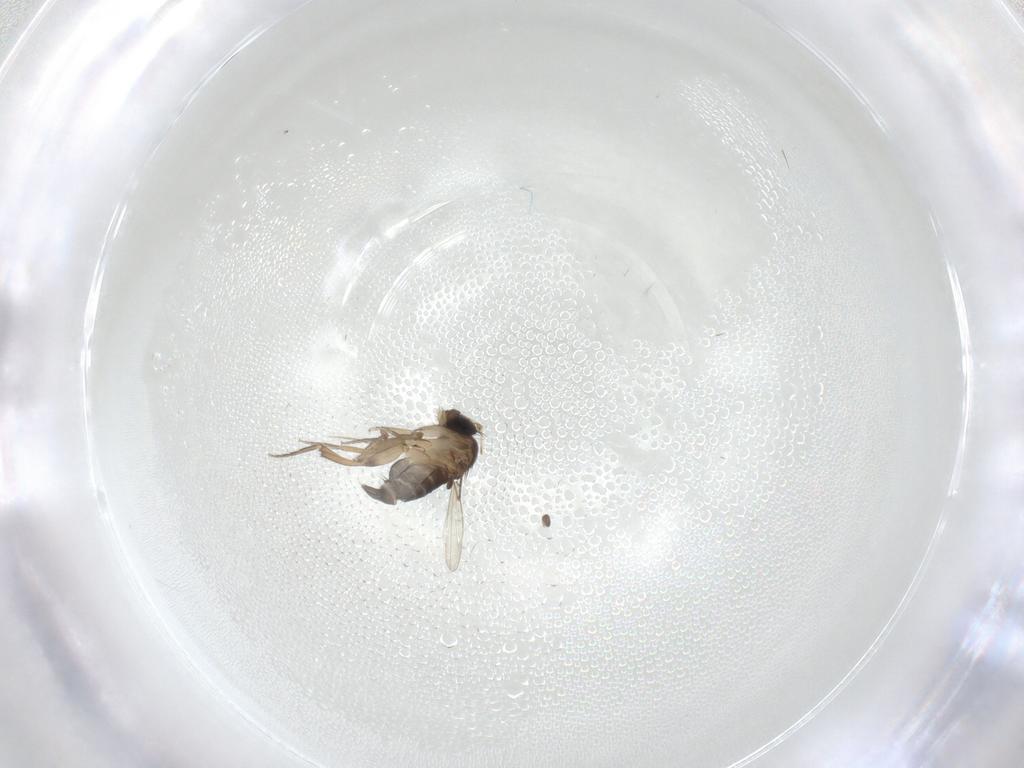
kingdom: Animalia
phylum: Arthropoda
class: Insecta
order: Diptera
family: Phoridae
